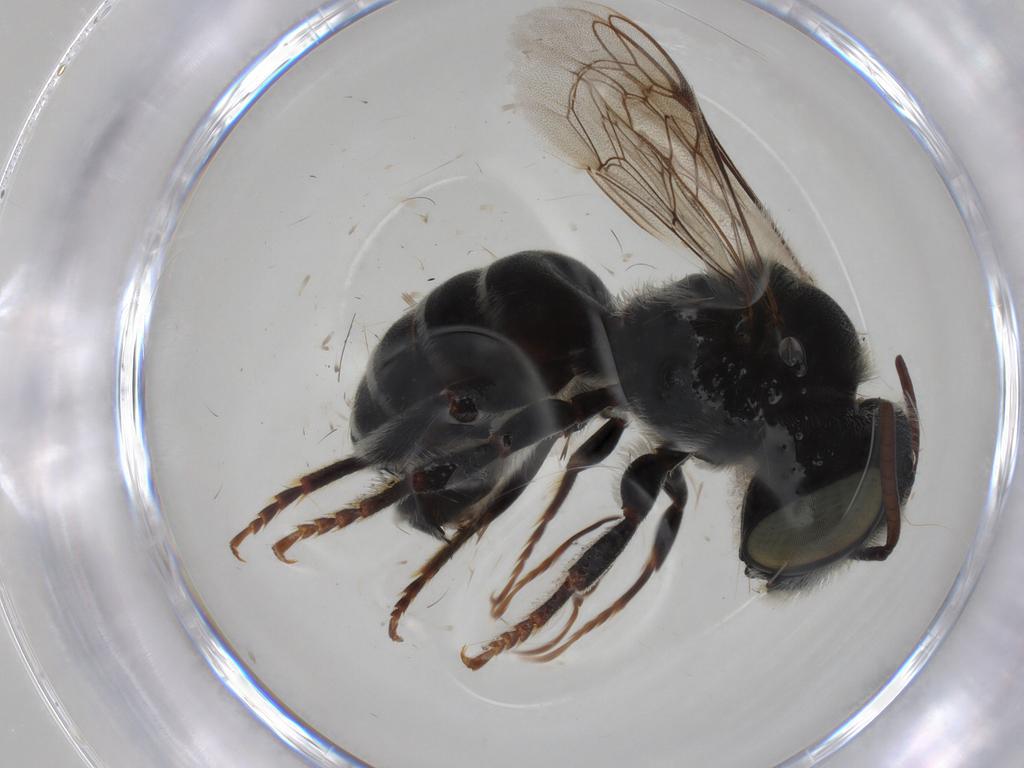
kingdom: Animalia
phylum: Arthropoda
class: Insecta
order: Hymenoptera
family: Megachilidae
